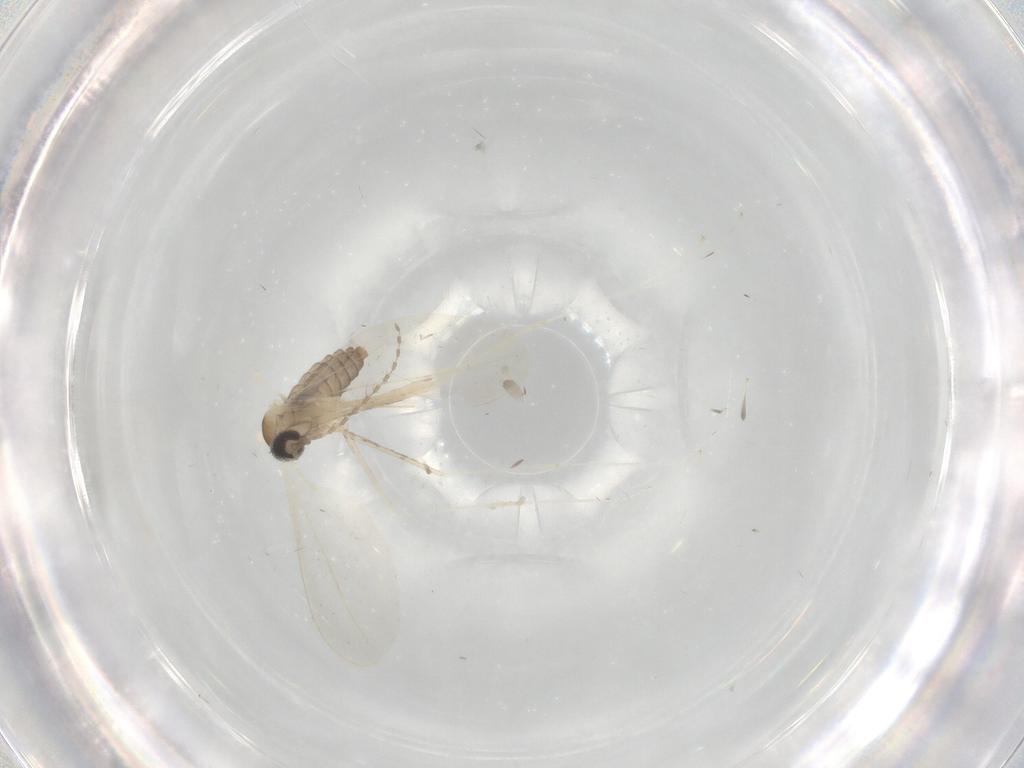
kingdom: Animalia
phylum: Arthropoda
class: Insecta
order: Diptera
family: Cecidomyiidae
